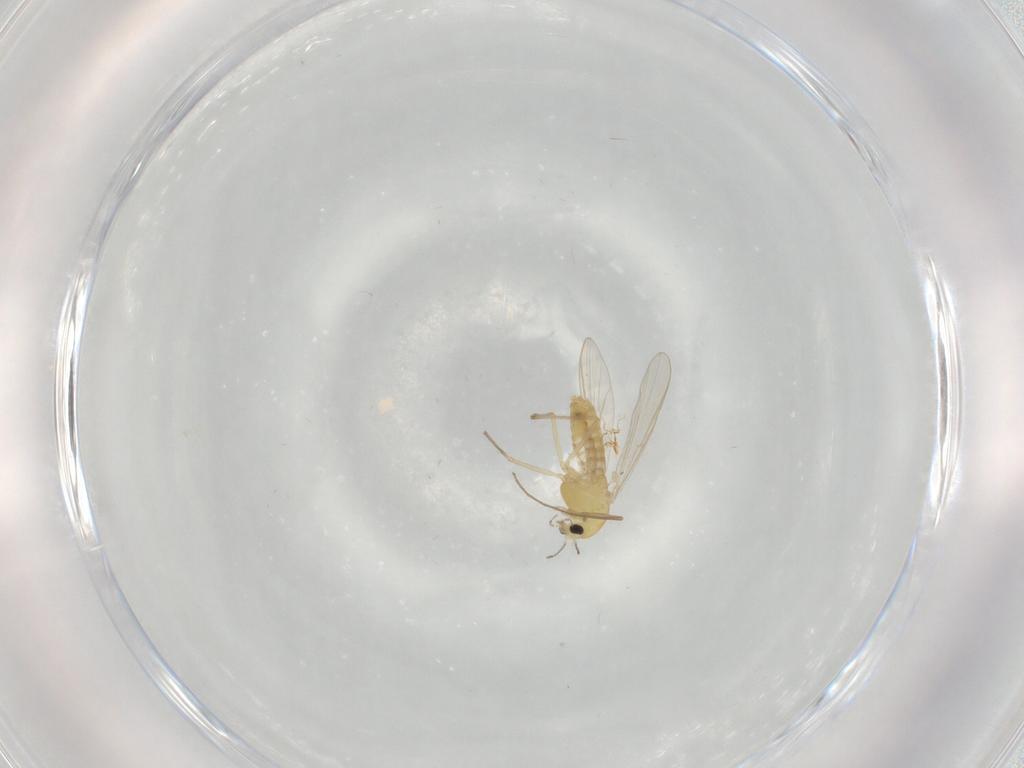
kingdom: Animalia
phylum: Arthropoda
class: Insecta
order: Diptera
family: Chironomidae
